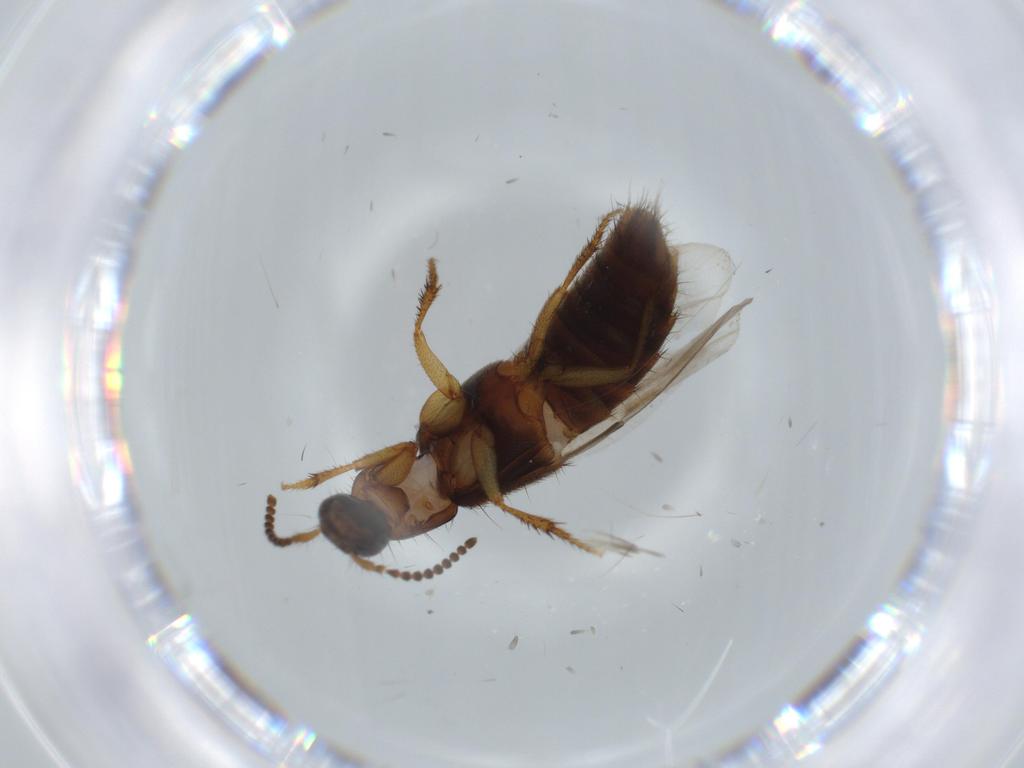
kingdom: Animalia
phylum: Arthropoda
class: Insecta
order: Coleoptera
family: Staphylinidae
